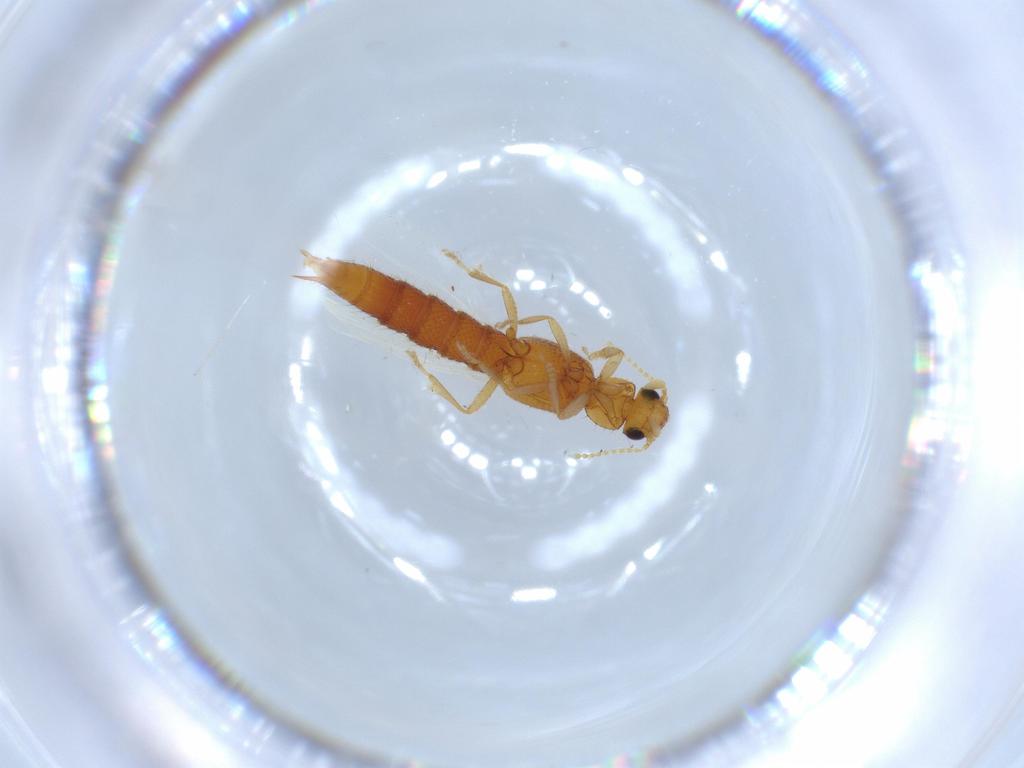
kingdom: Animalia
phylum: Arthropoda
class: Insecta
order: Coleoptera
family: Staphylinidae
